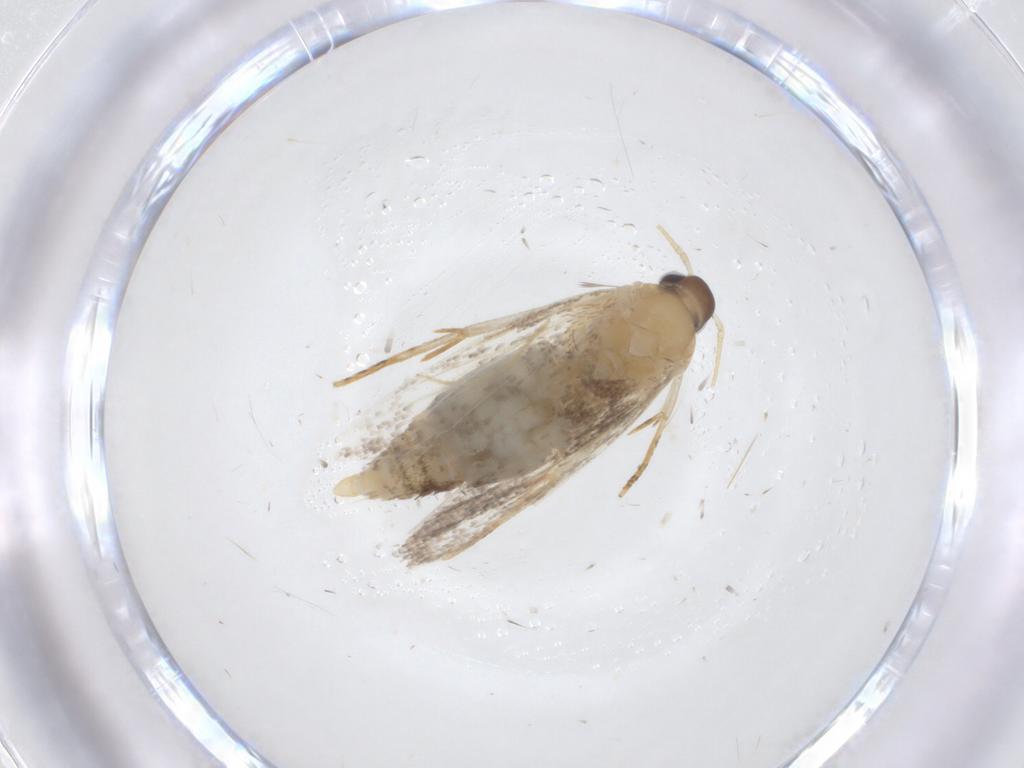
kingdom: Animalia
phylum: Arthropoda
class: Insecta
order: Lepidoptera
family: Oecophoridae
